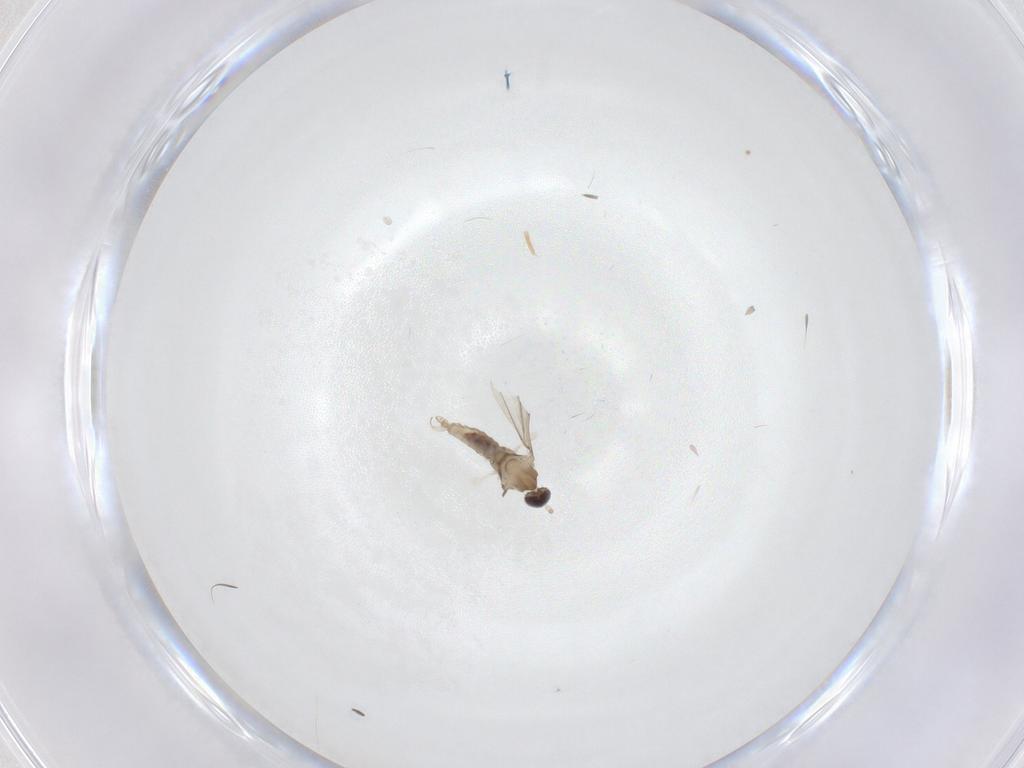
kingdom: Animalia
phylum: Arthropoda
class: Insecta
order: Diptera
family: Cecidomyiidae
